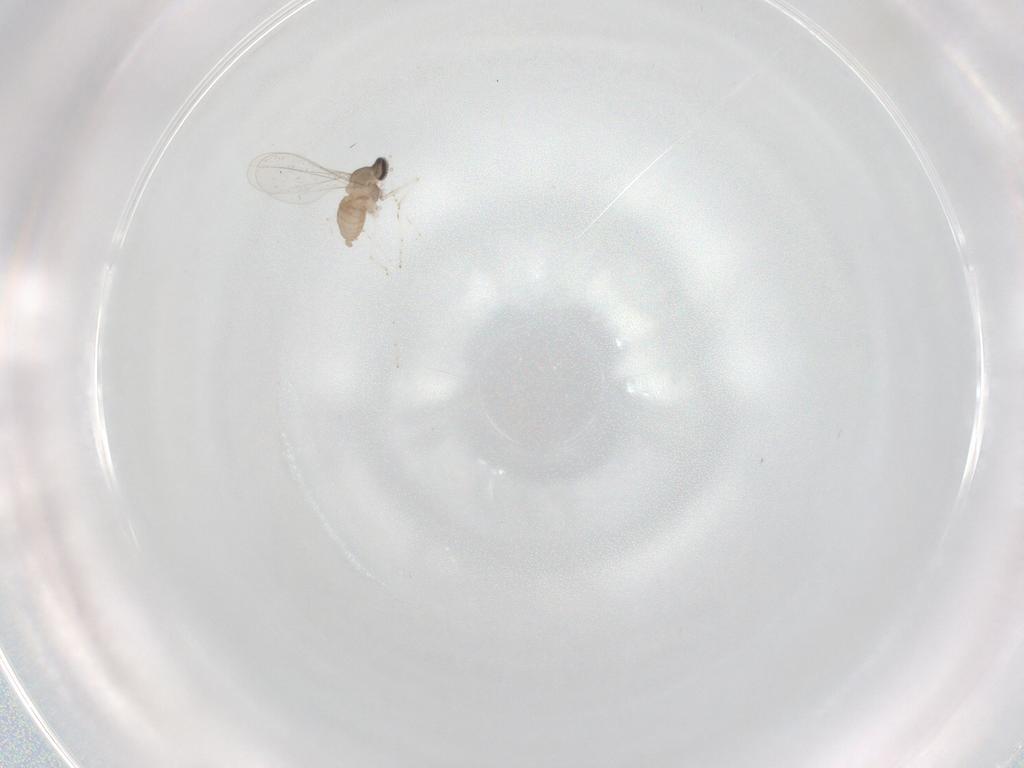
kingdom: Animalia
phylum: Arthropoda
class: Insecta
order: Diptera
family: Cecidomyiidae
